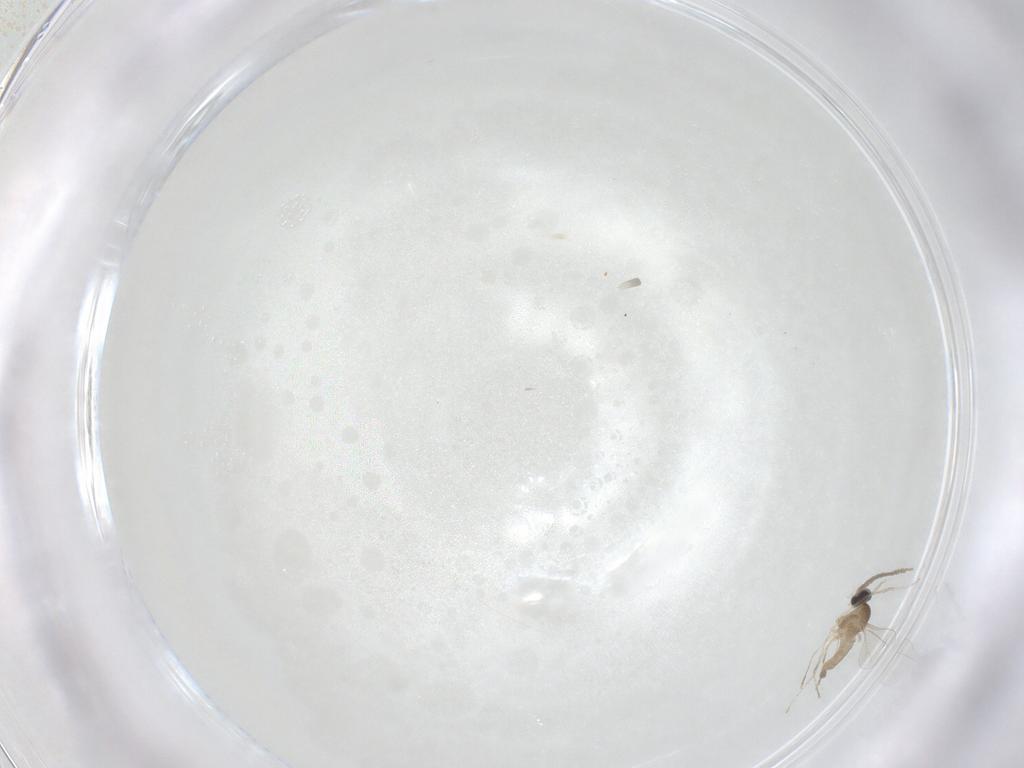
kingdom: Animalia
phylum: Arthropoda
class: Insecta
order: Diptera
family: Cecidomyiidae
